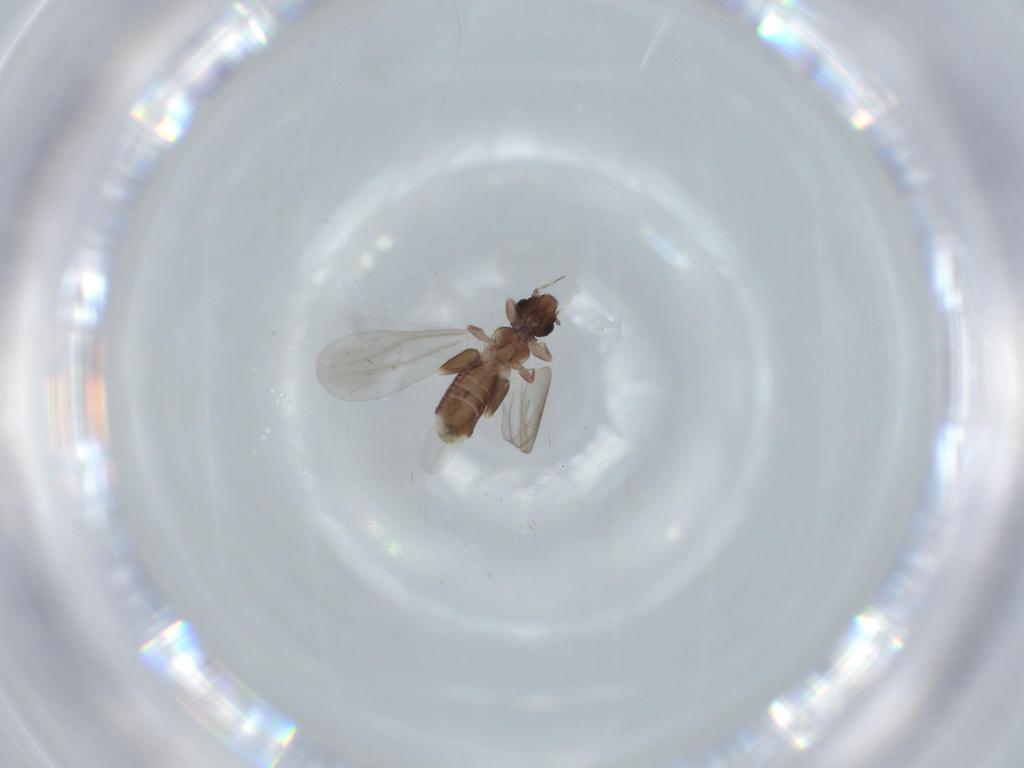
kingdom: Animalia
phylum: Arthropoda
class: Insecta
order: Psocodea
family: Liposcelididae
